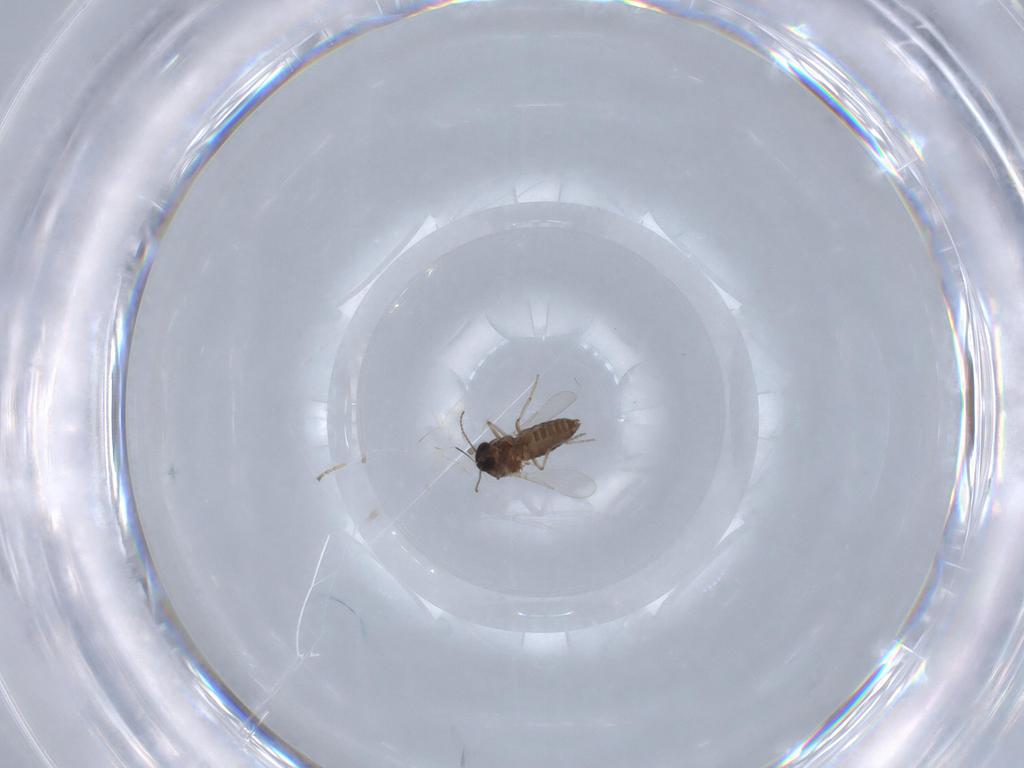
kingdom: Animalia
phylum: Arthropoda
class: Insecta
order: Diptera
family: Ceratopogonidae
